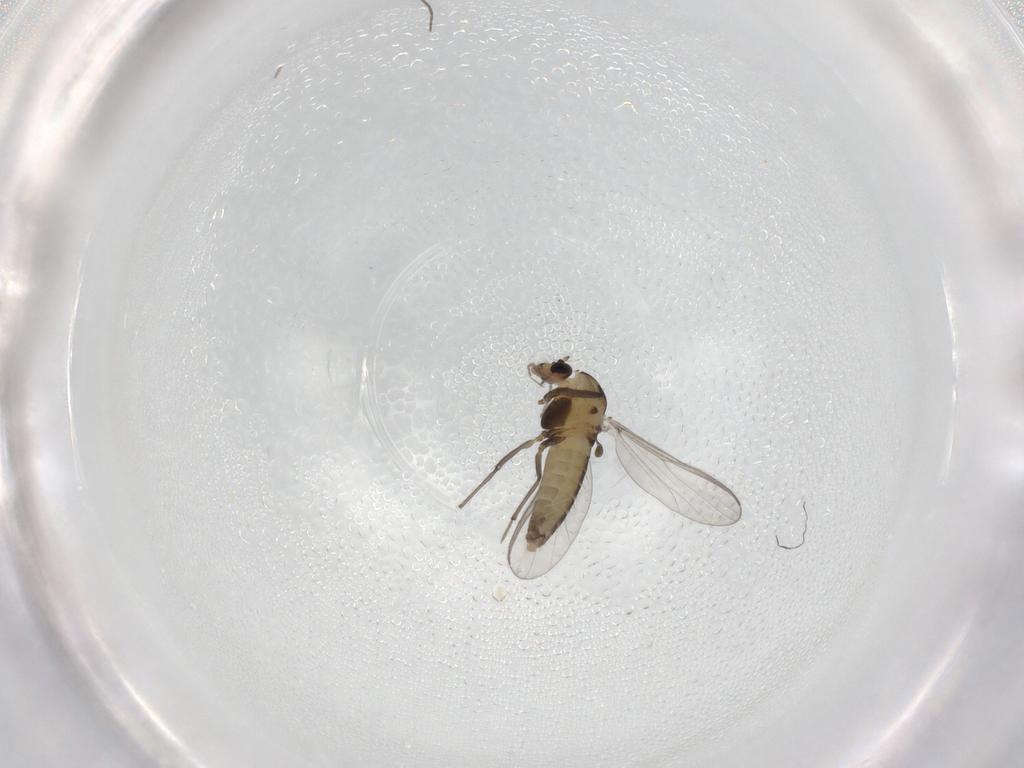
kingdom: Animalia
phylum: Arthropoda
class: Insecta
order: Diptera
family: Chironomidae
